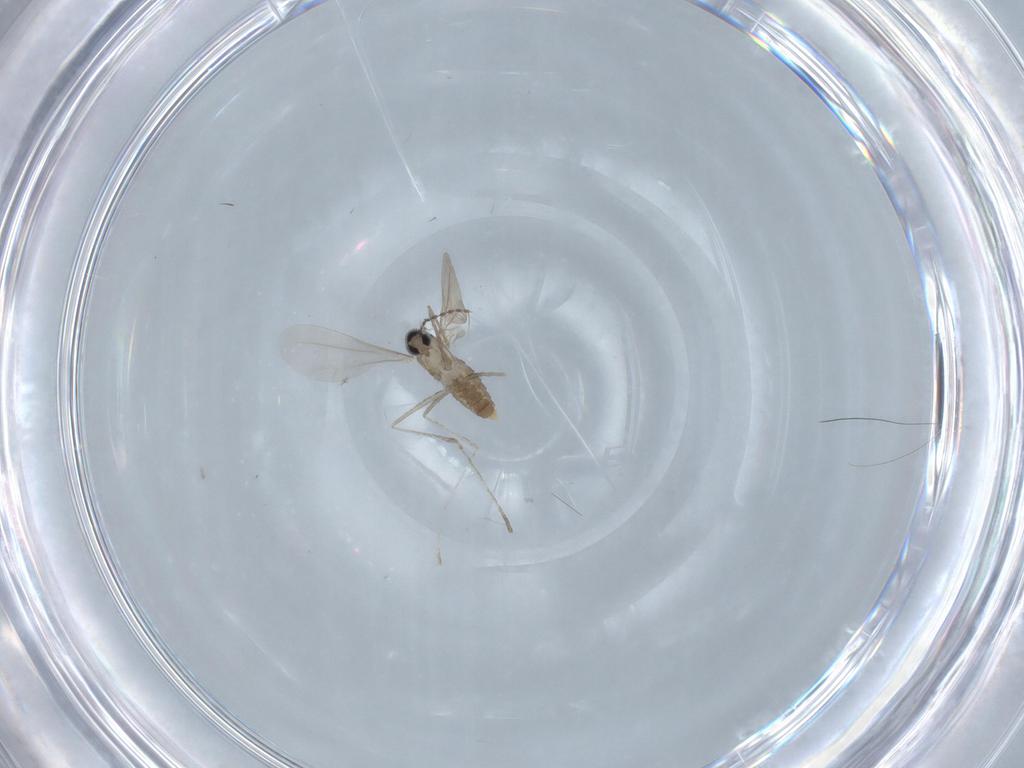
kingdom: Animalia
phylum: Arthropoda
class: Insecta
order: Diptera
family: Cecidomyiidae
